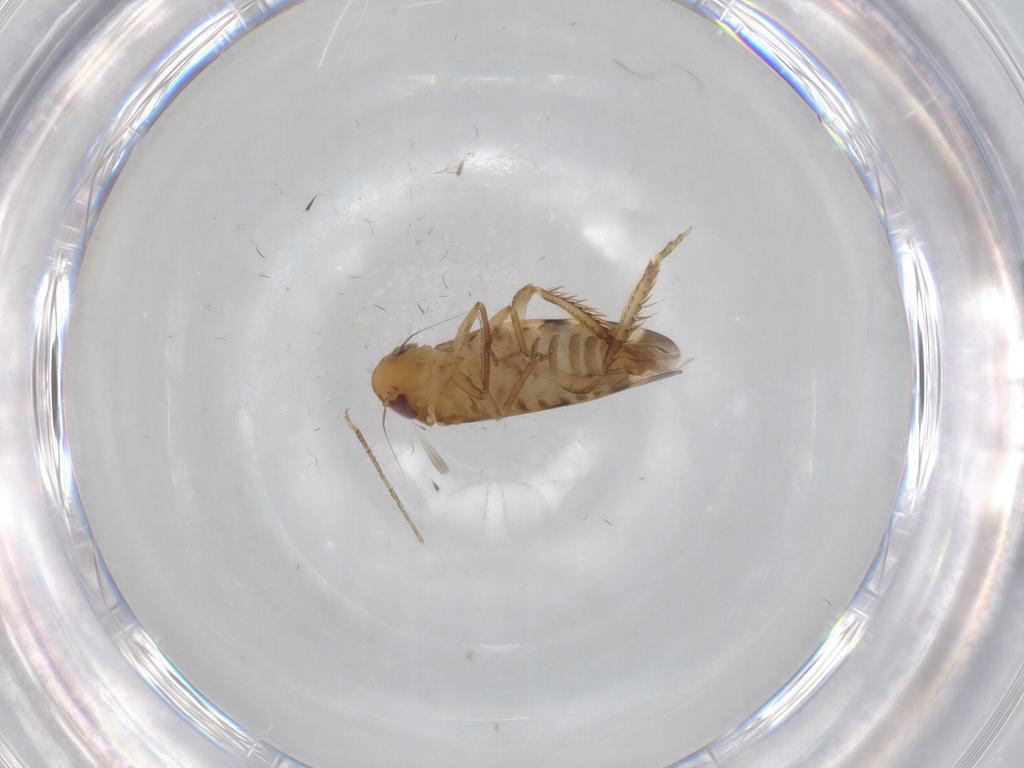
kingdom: Animalia
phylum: Arthropoda
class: Insecta
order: Hemiptera
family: Cicadellidae
